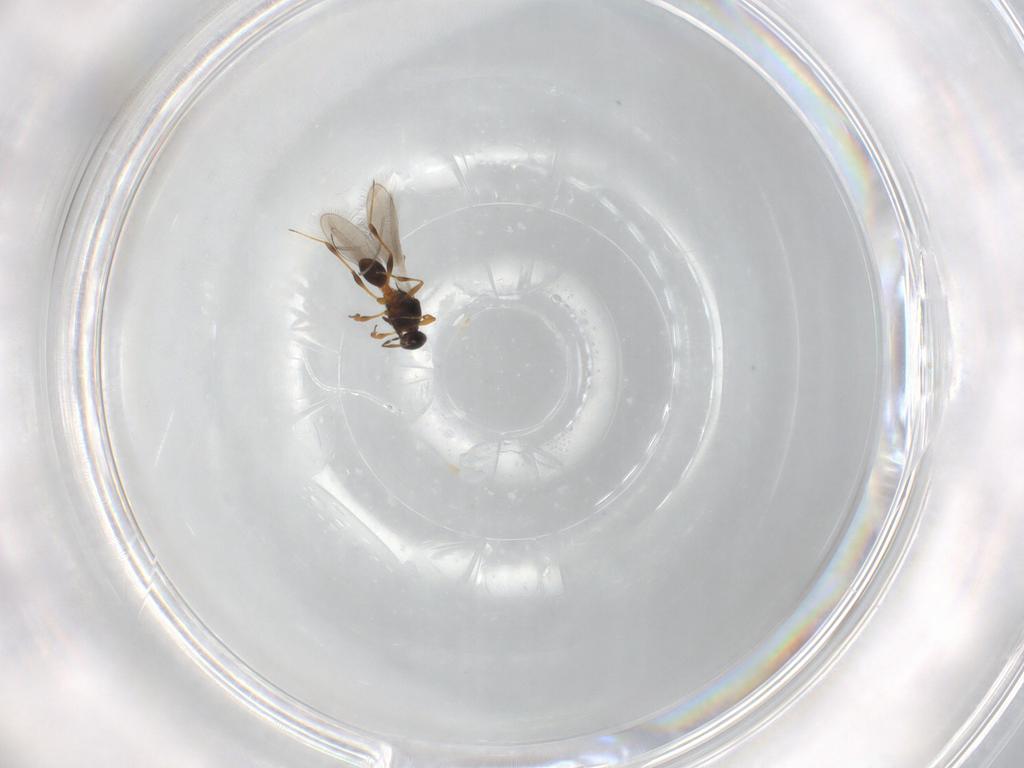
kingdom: Animalia
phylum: Arthropoda
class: Insecta
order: Hymenoptera
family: Platygastridae
